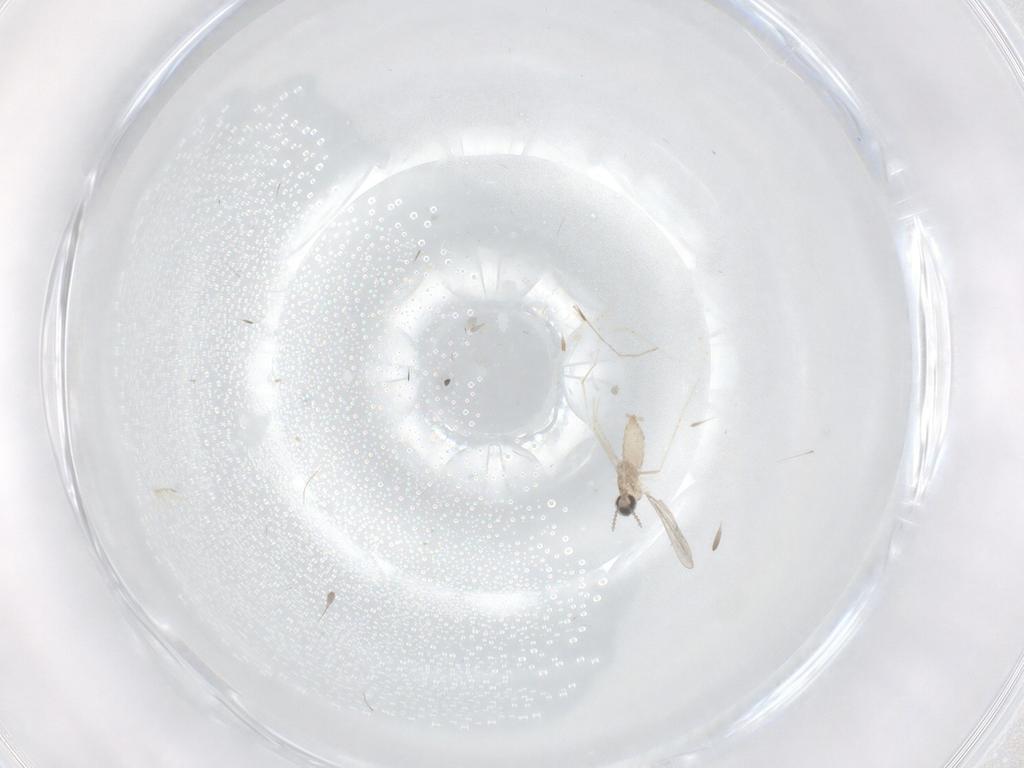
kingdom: Animalia
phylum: Arthropoda
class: Insecta
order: Diptera
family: Chironomidae
